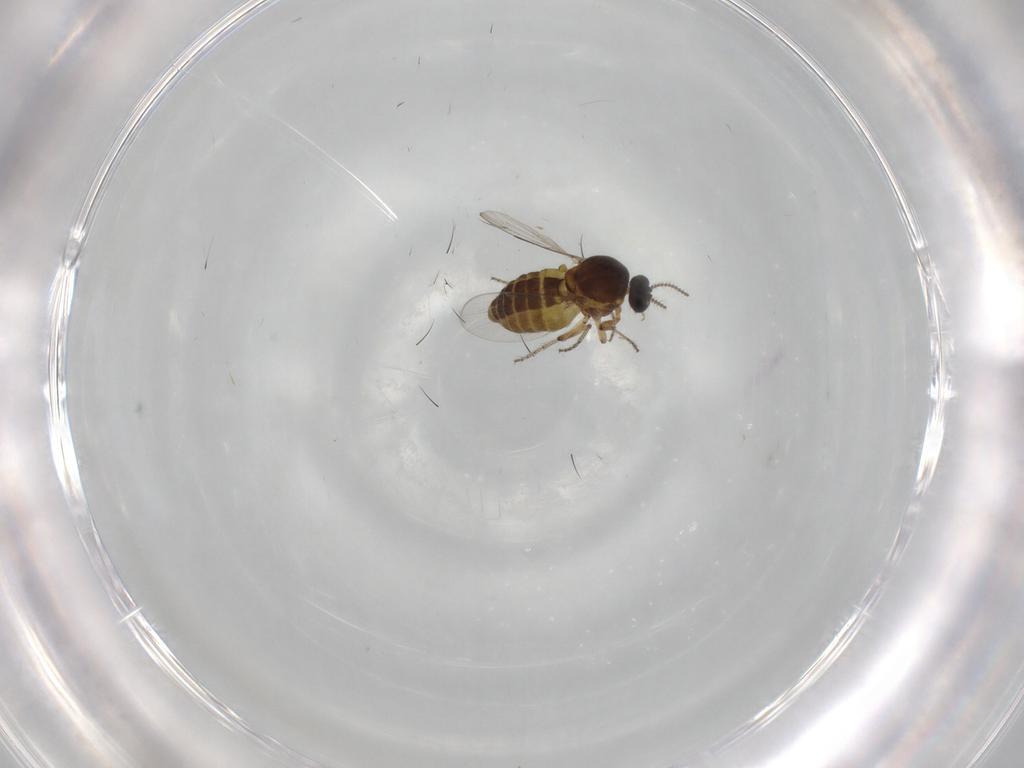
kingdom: Animalia
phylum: Arthropoda
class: Insecta
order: Diptera
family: Ceratopogonidae
